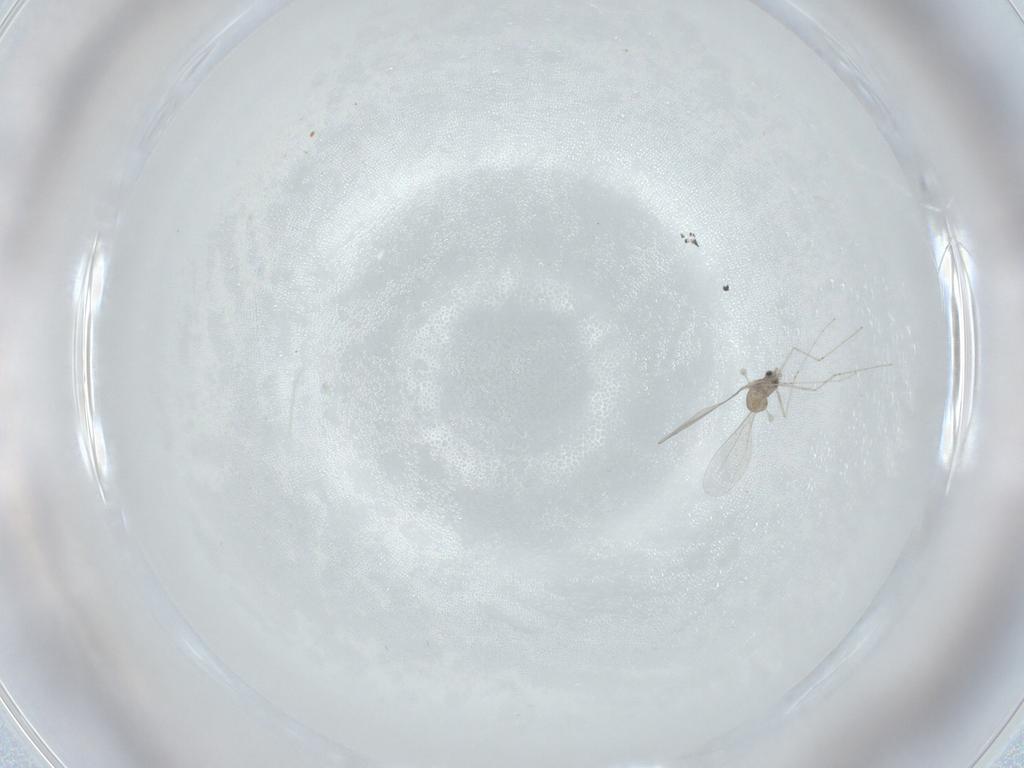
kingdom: Animalia
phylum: Arthropoda
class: Insecta
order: Diptera
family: Cecidomyiidae
